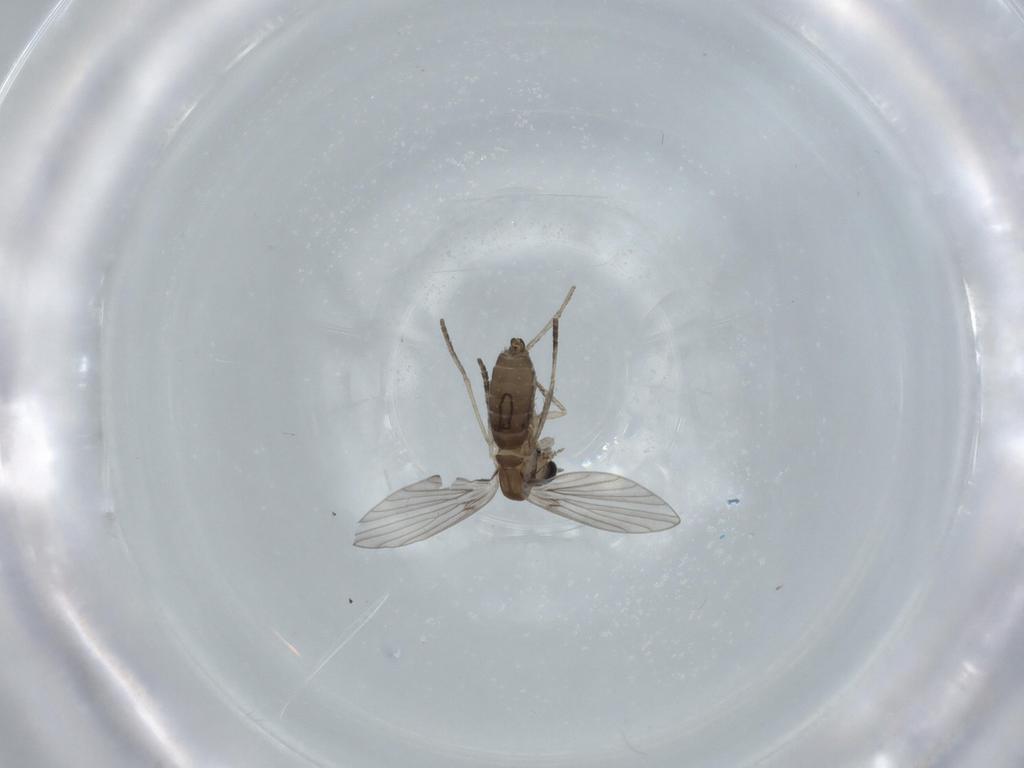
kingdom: Animalia
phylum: Arthropoda
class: Insecta
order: Diptera
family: Psychodidae
